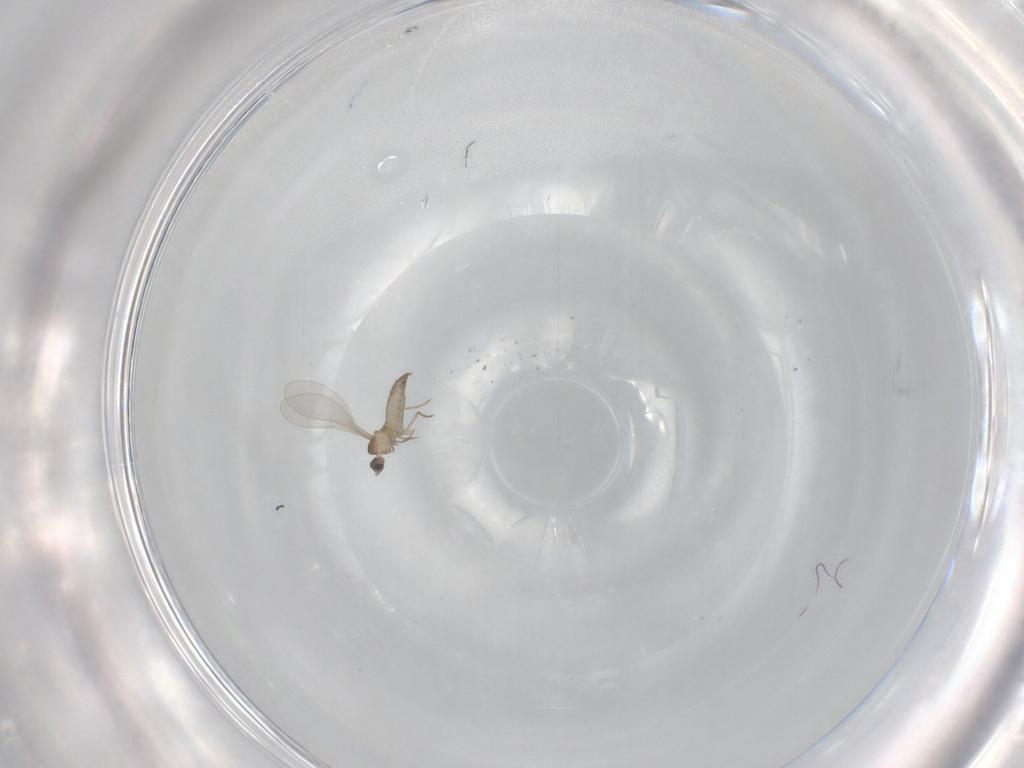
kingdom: Animalia
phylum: Arthropoda
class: Insecta
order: Diptera
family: Cecidomyiidae
